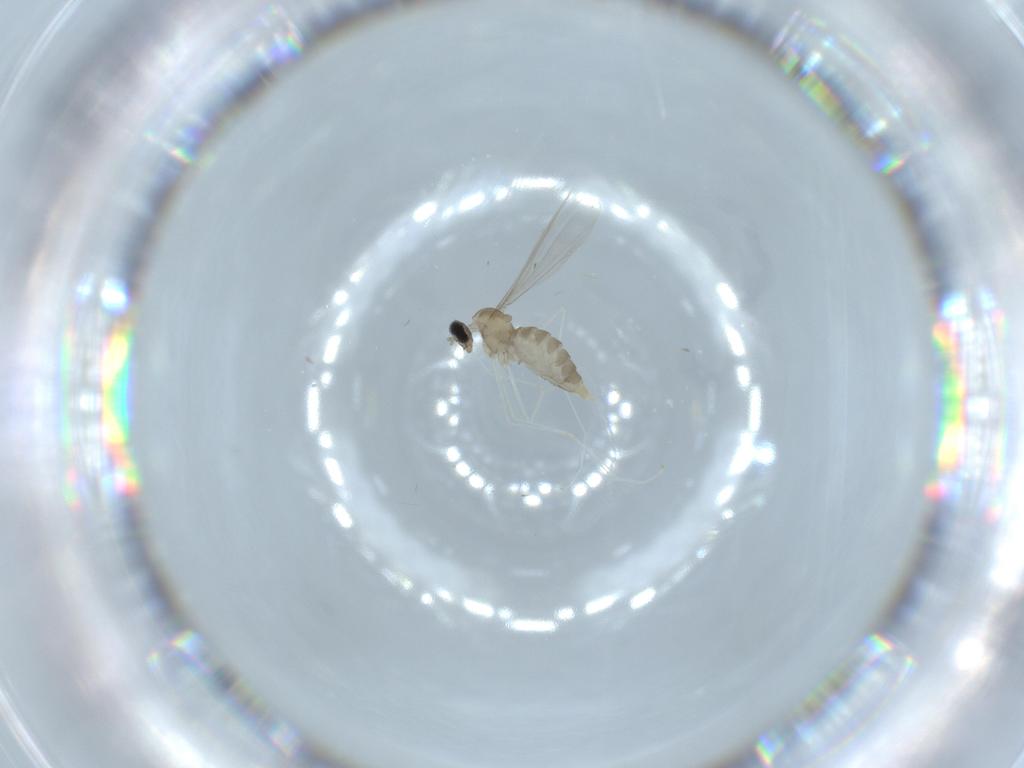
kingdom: Animalia
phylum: Arthropoda
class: Insecta
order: Diptera
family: Cecidomyiidae
